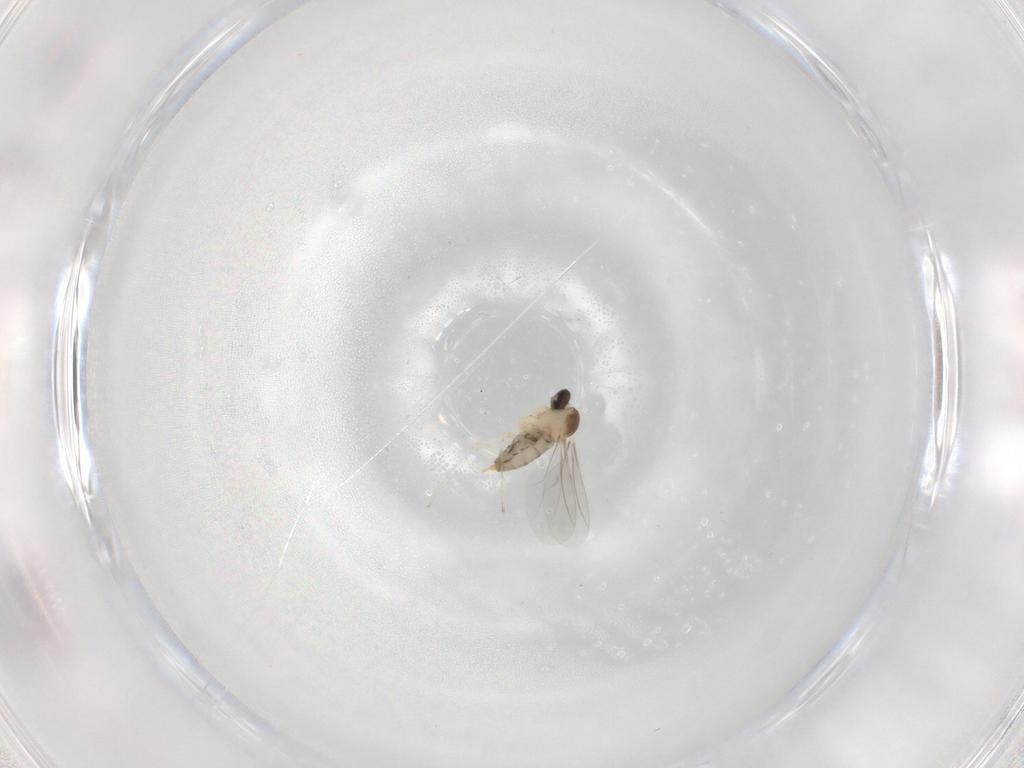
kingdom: Animalia
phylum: Arthropoda
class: Insecta
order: Diptera
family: Cecidomyiidae
